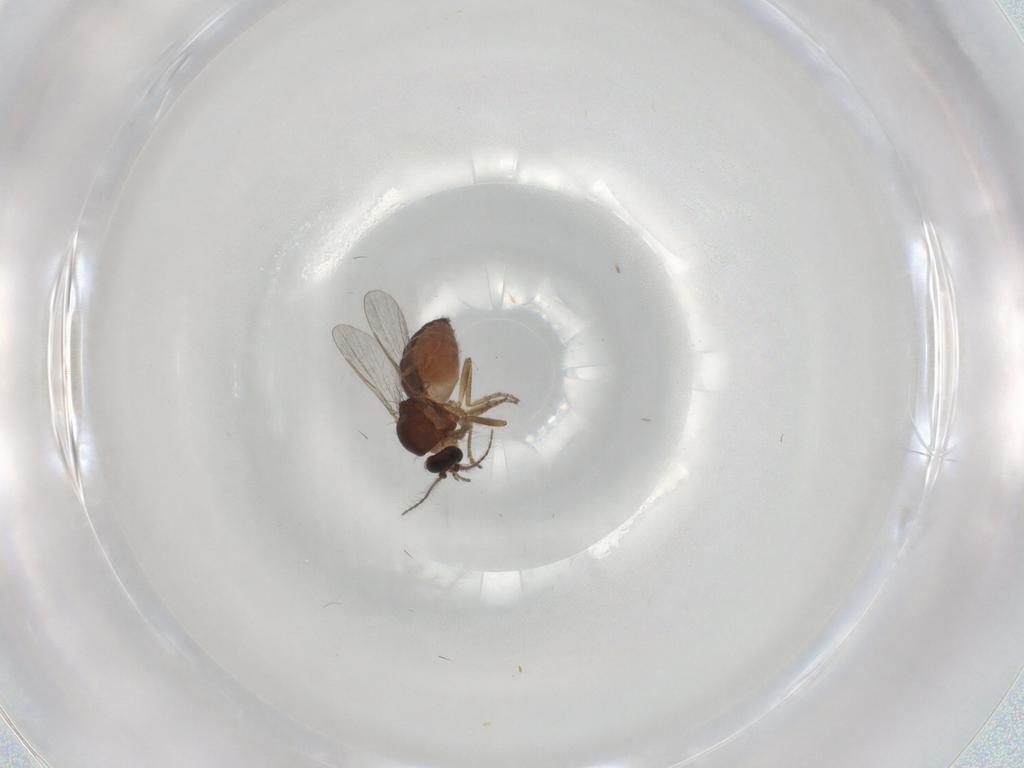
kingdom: Animalia
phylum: Arthropoda
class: Insecta
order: Diptera
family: Ceratopogonidae
